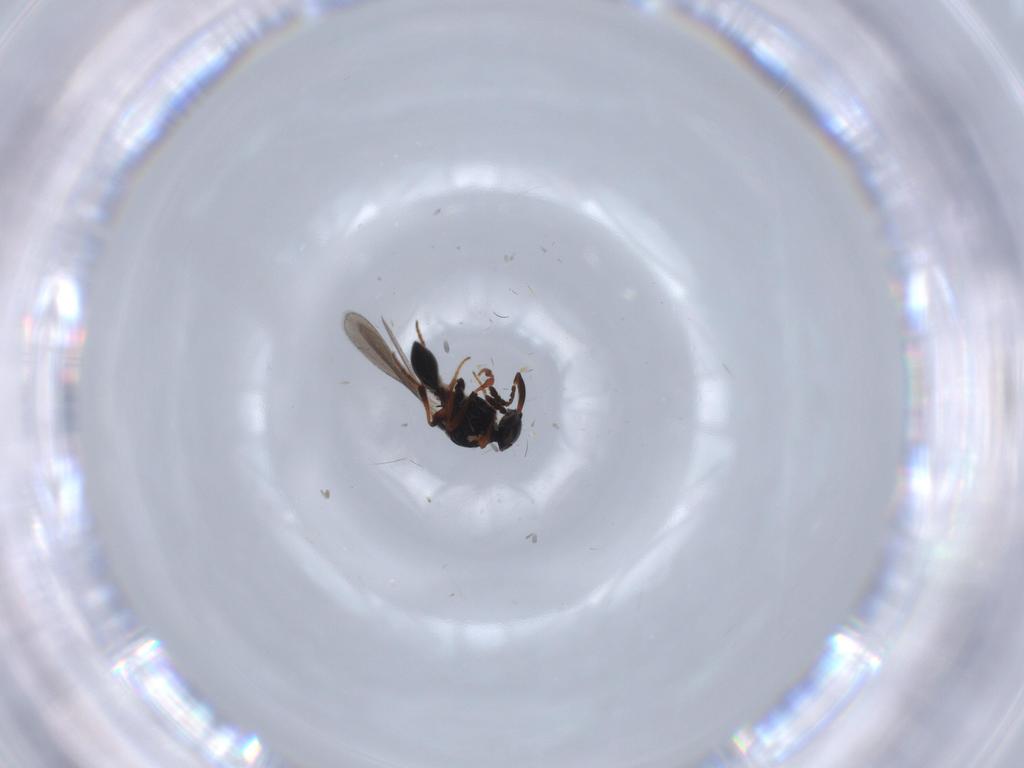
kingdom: Animalia
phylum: Arthropoda
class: Insecta
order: Hymenoptera
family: Platygastridae
